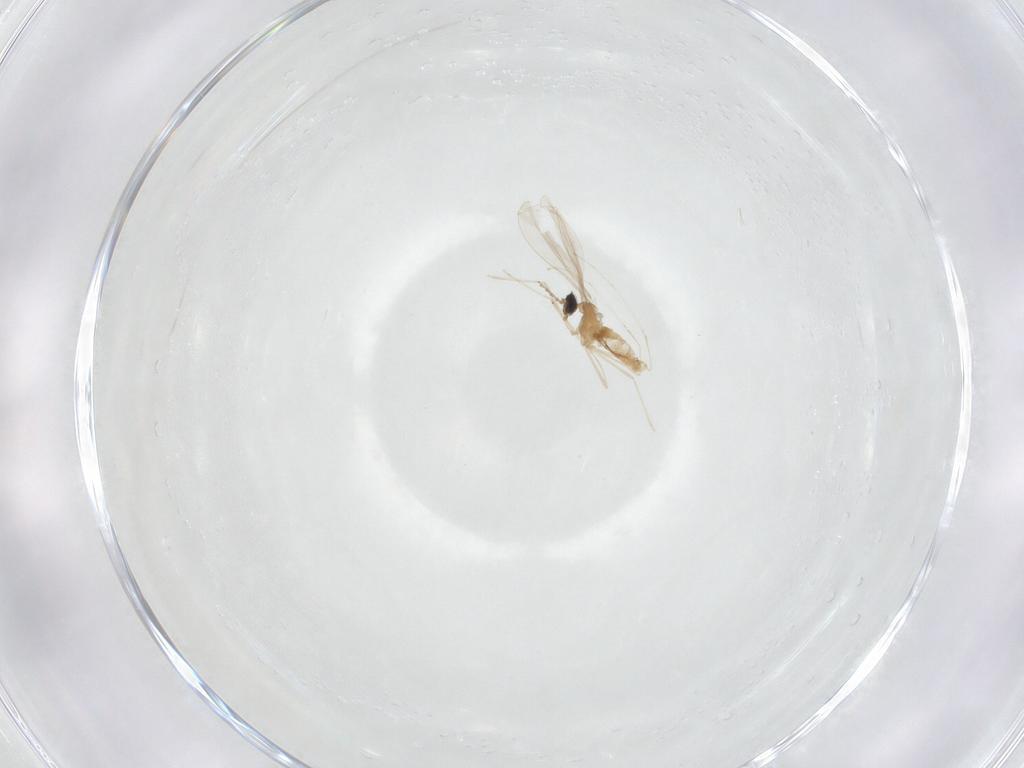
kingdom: Animalia
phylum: Arthropoda
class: Insecta
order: Diptera
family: Cecidomyiidae
